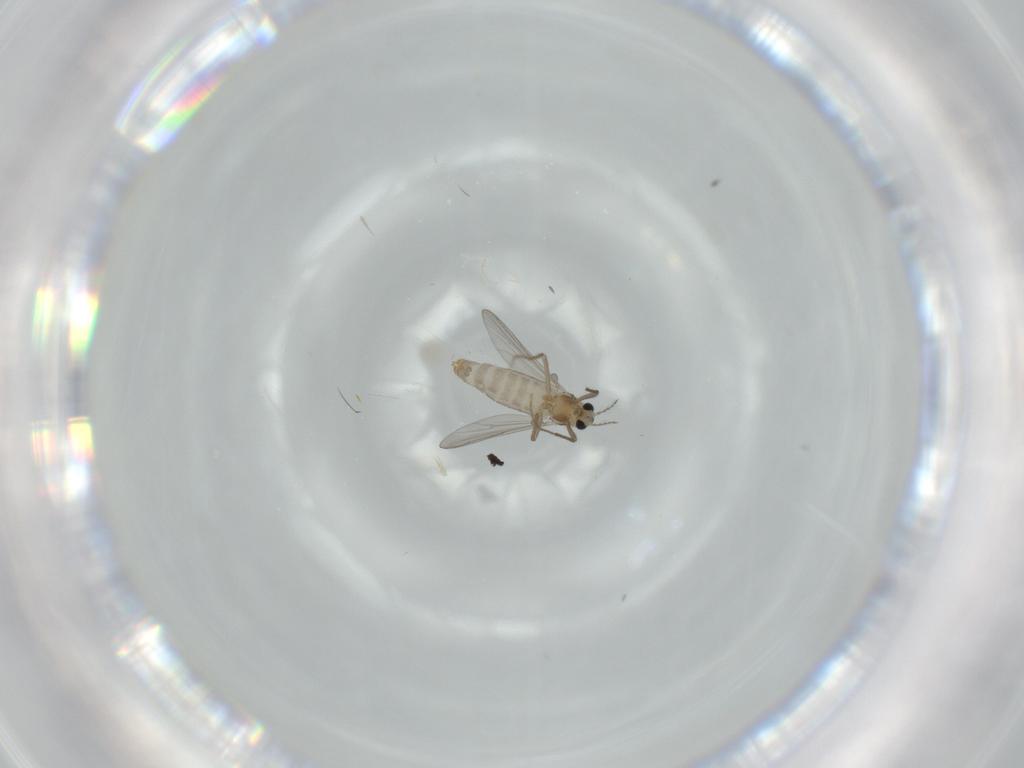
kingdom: Animalia
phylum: Arthropoda
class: Insecta
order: Diptera
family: Chironomidae
